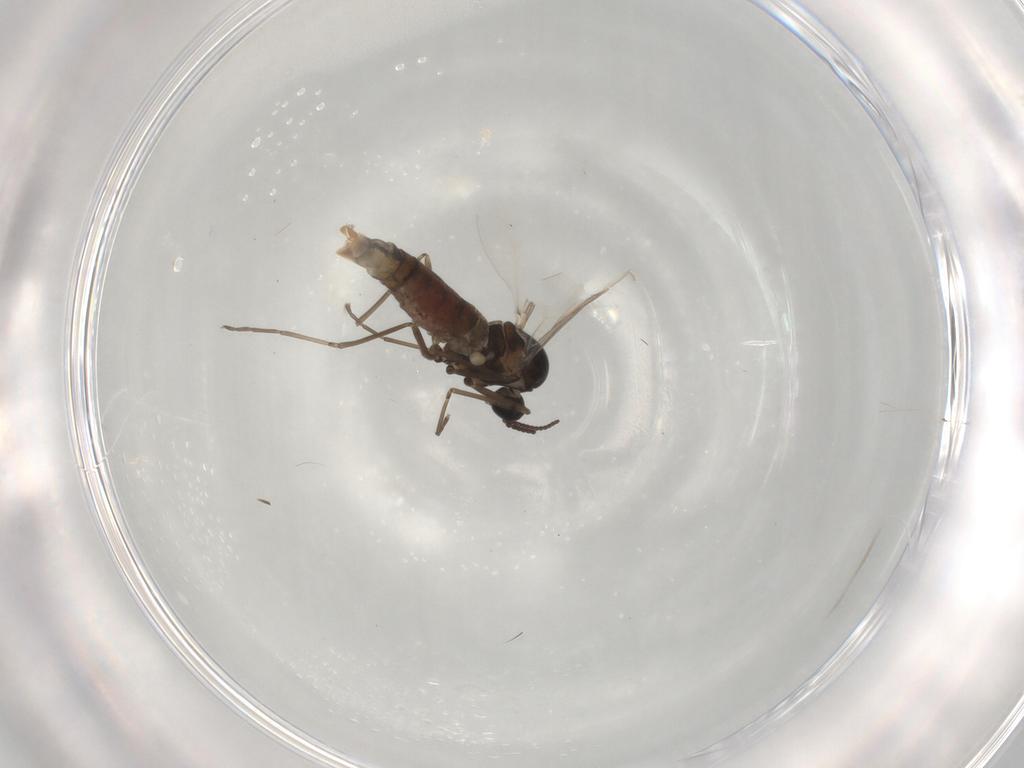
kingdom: Animalia
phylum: Arthropoda
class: Insecta
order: Diptera
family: Cecidomyiidae
